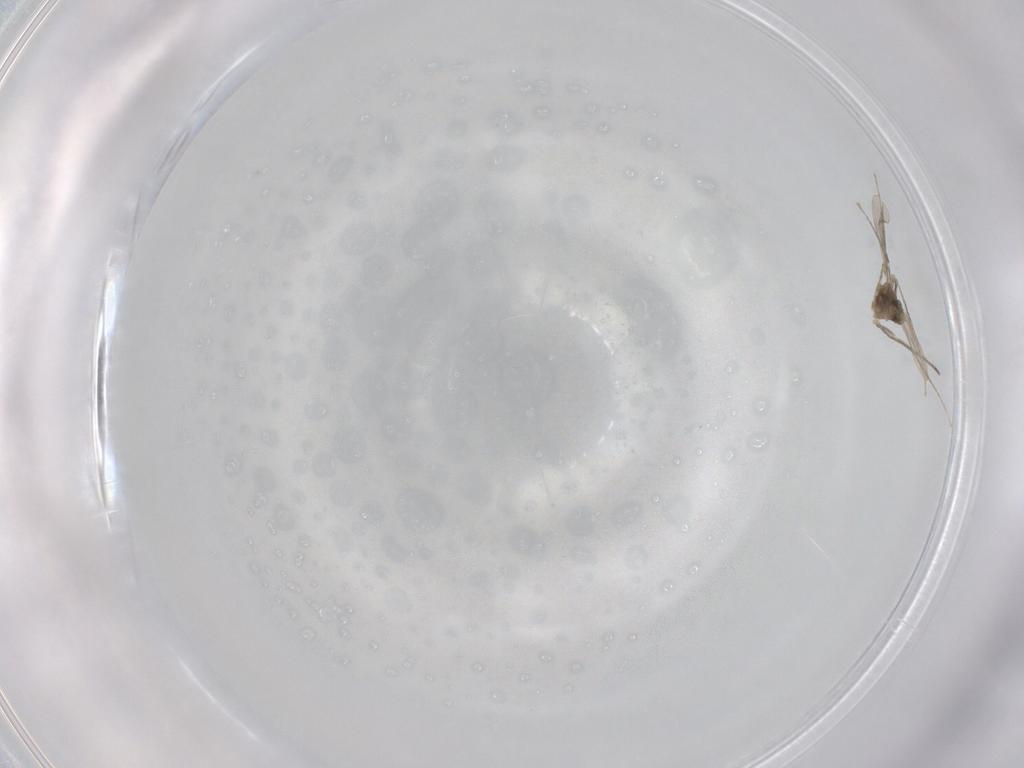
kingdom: Animalia
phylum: Arthropoda
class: Insecta
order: Diptera
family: Cecidomyiidae
